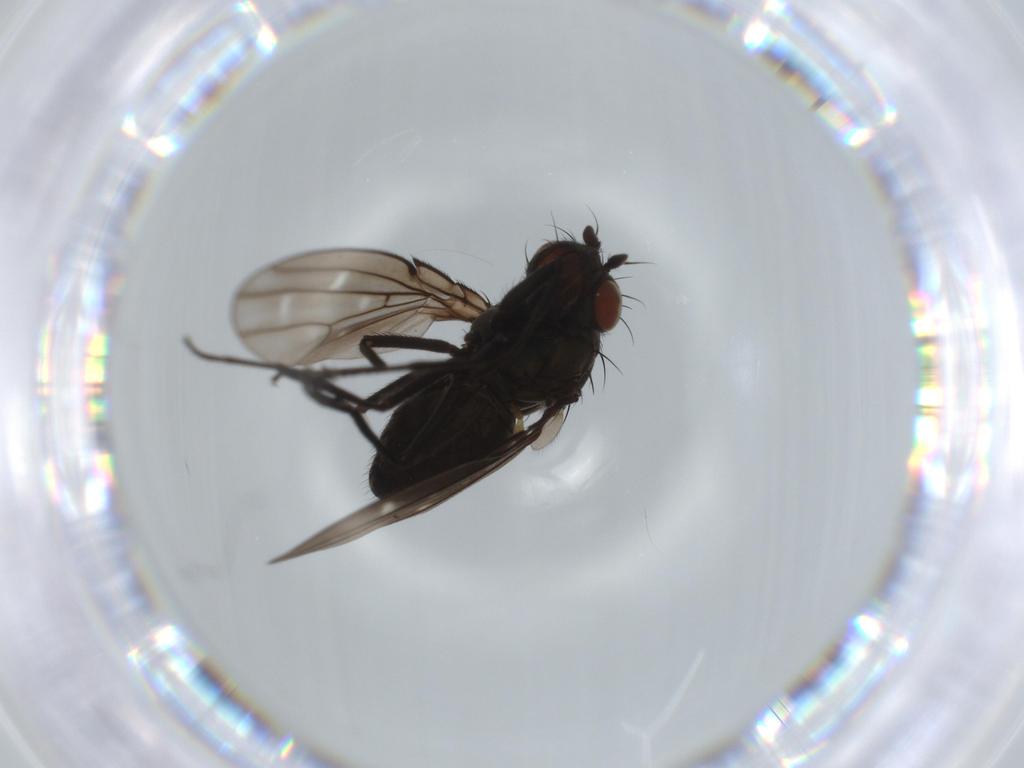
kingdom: Animalia
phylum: Arthropoda
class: Insecta
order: Diptera
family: Ephydridae
